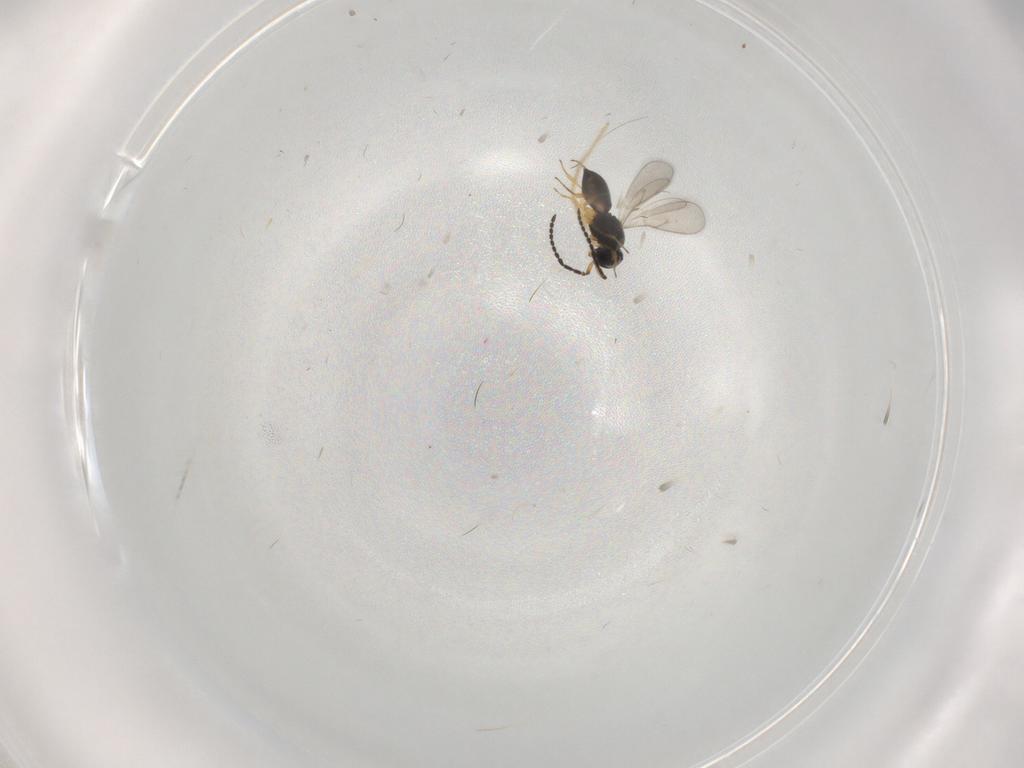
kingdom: Animalia
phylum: Arthropoda
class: Insecta
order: Hymenoptera
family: Scelionidae
